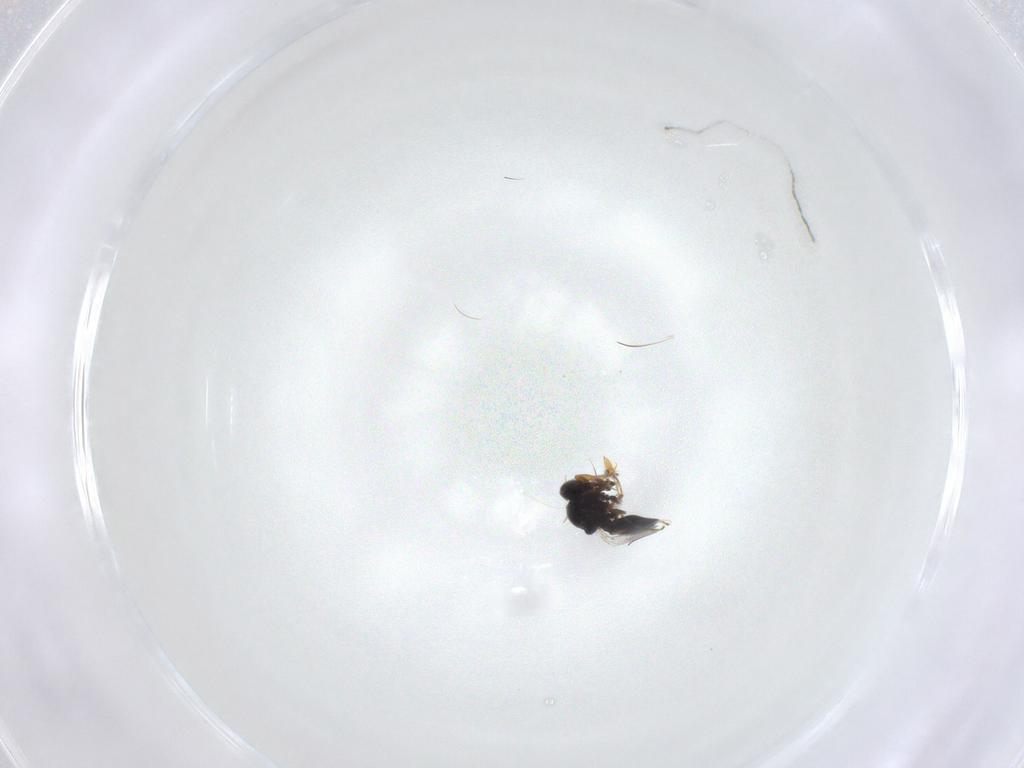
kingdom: Animalia
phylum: Arthropoda
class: Insecta
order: Hymenoptera
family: Formicidae
